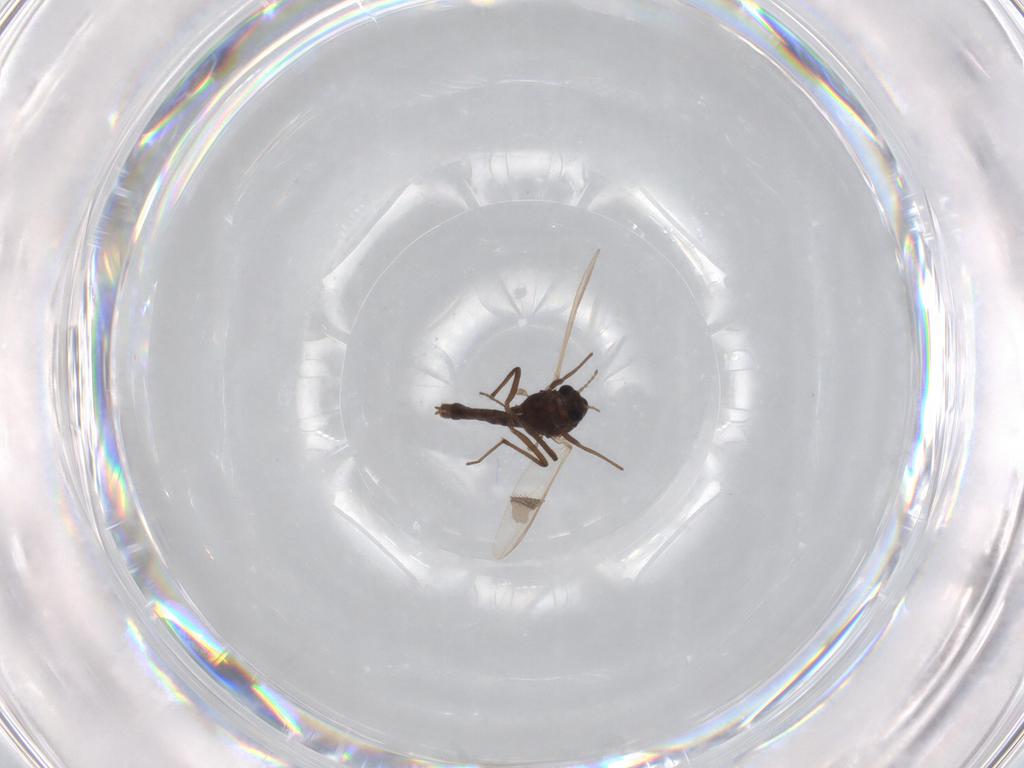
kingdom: Animalia
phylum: Arthropoda
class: Insecta
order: Diptera
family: Chironomidae
